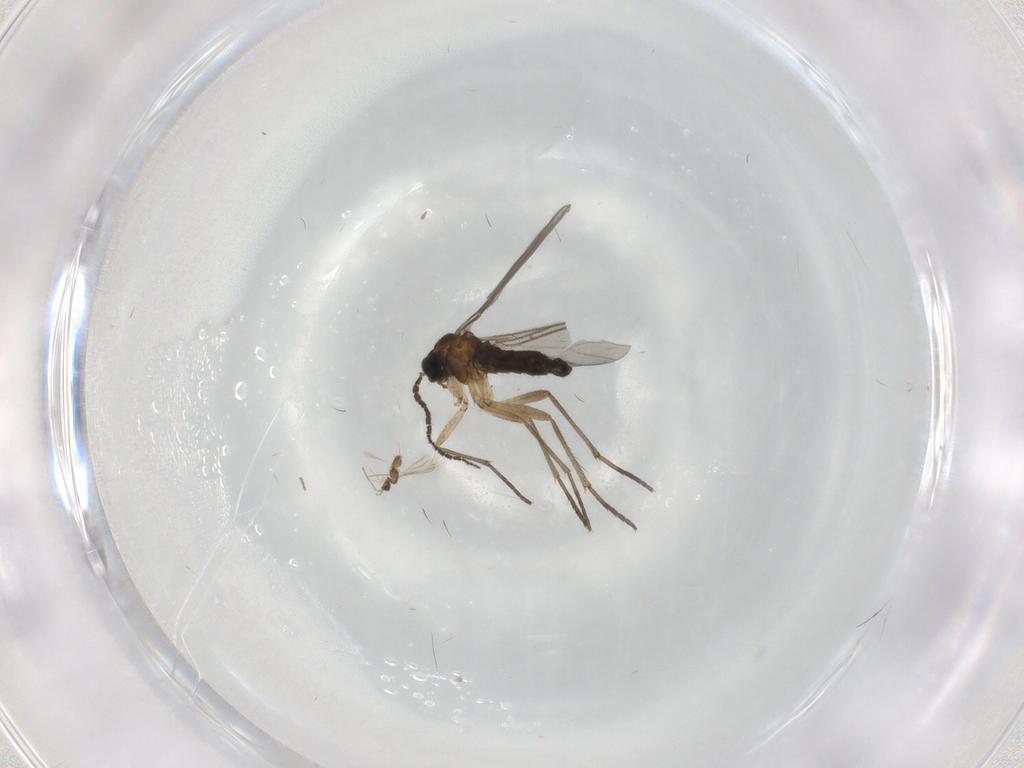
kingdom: Animalia
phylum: Arthropoda
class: Insecta
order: Diptera
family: Sciaridae
